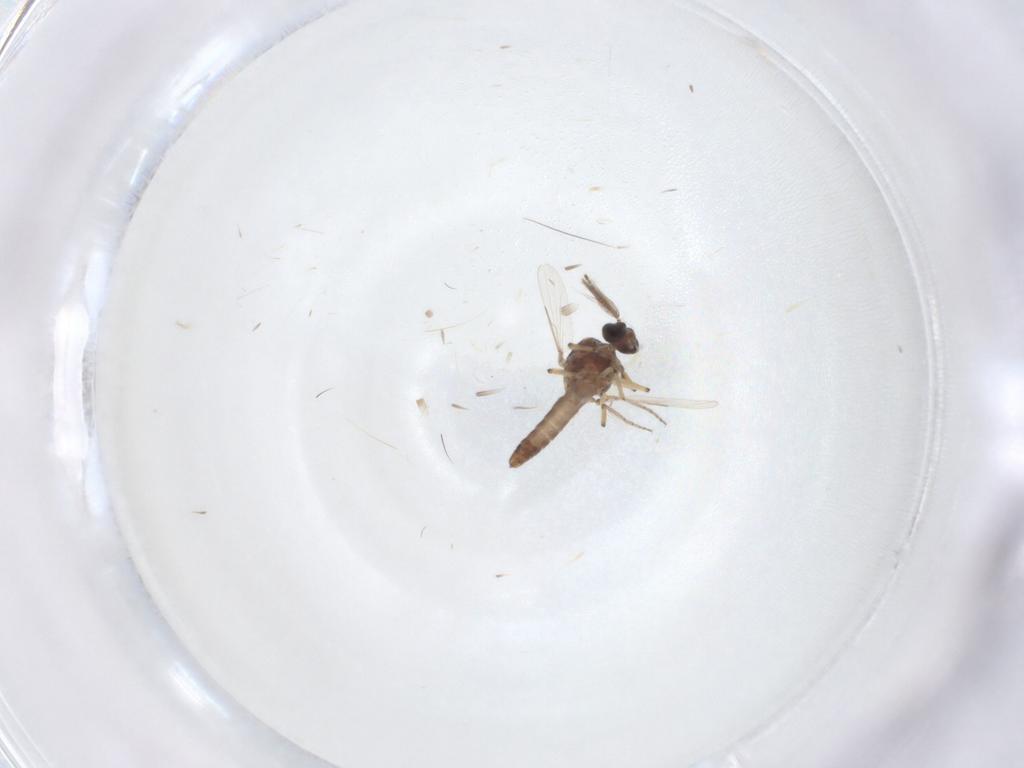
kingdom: Animalia
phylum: Arthropoda
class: Insecta
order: Diptera
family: Ceratopogonidae
